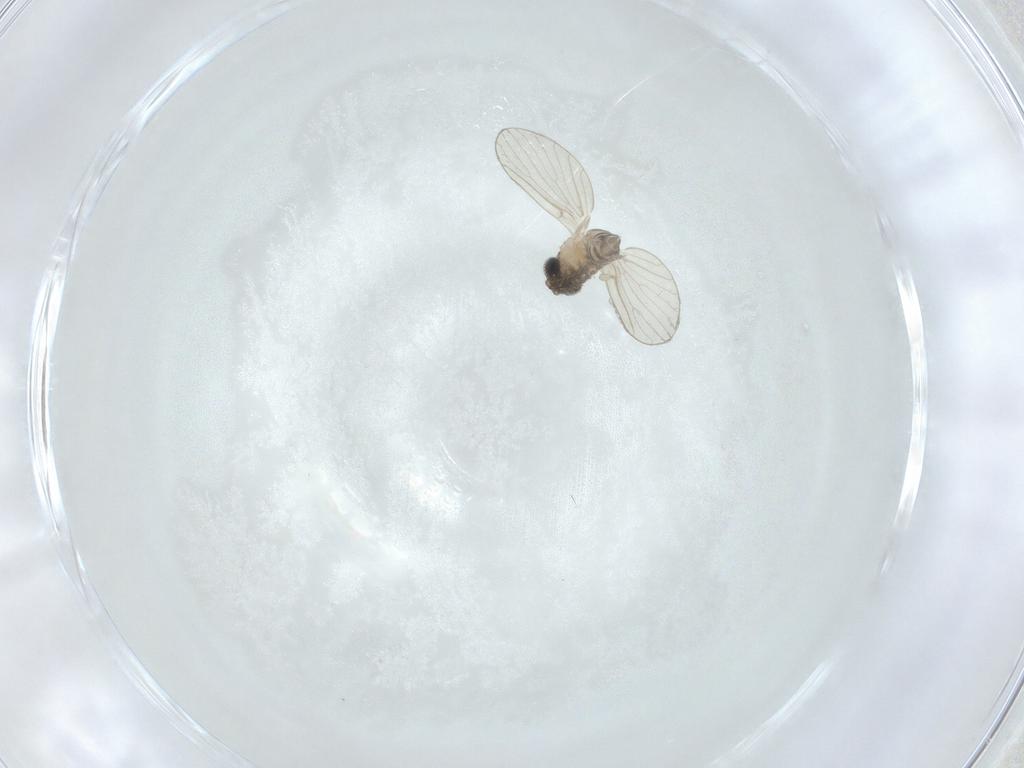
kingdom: Animalia
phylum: Arthropoda
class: Insecta
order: Diptera
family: Psychodidae
